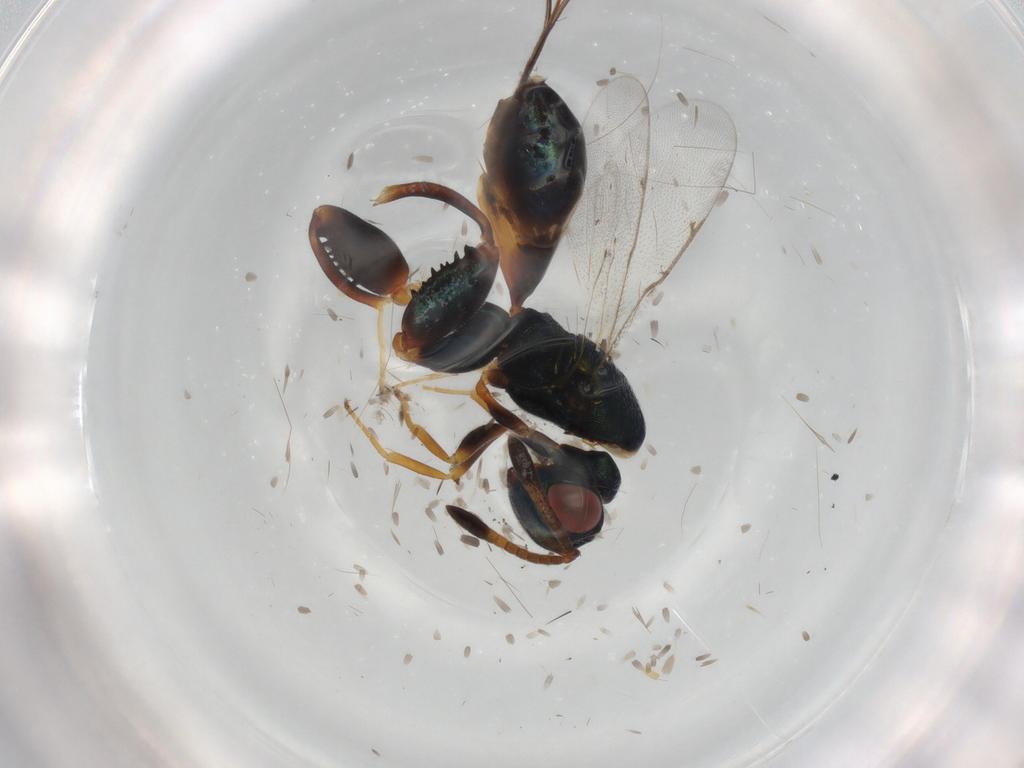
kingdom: Animalia
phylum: Arthropoda
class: Insecta
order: Hymenoptera
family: Torymidae
